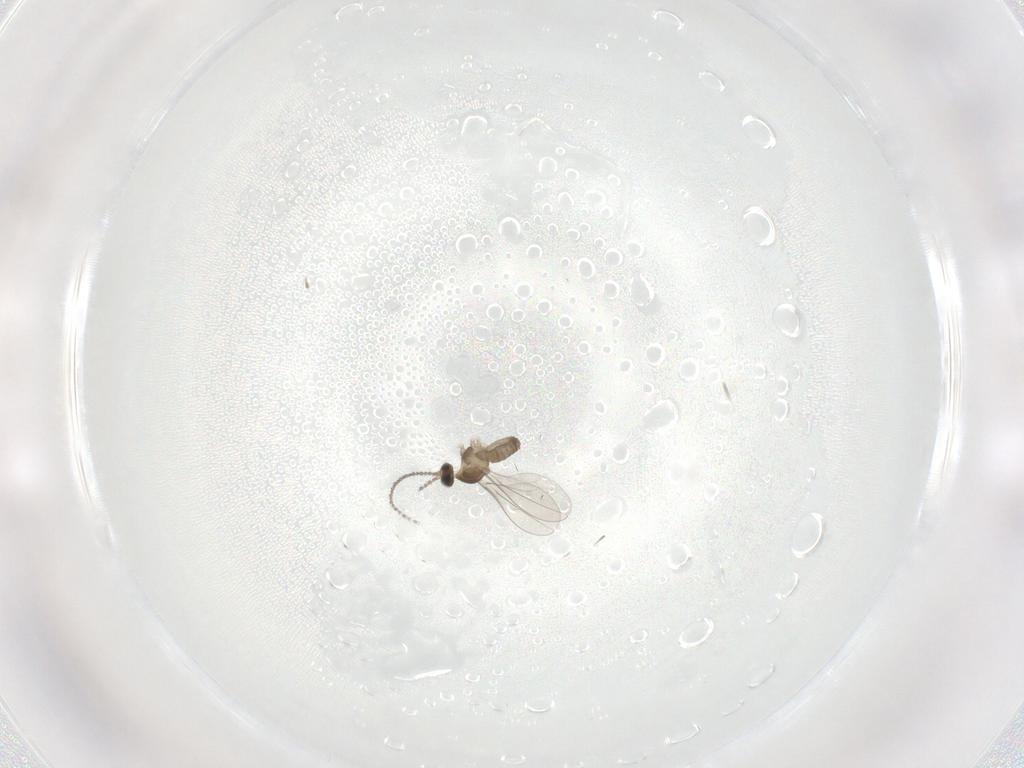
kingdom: Animalia
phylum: Arthropoda
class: Insecta
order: Diptera
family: Cecidomyiidae
